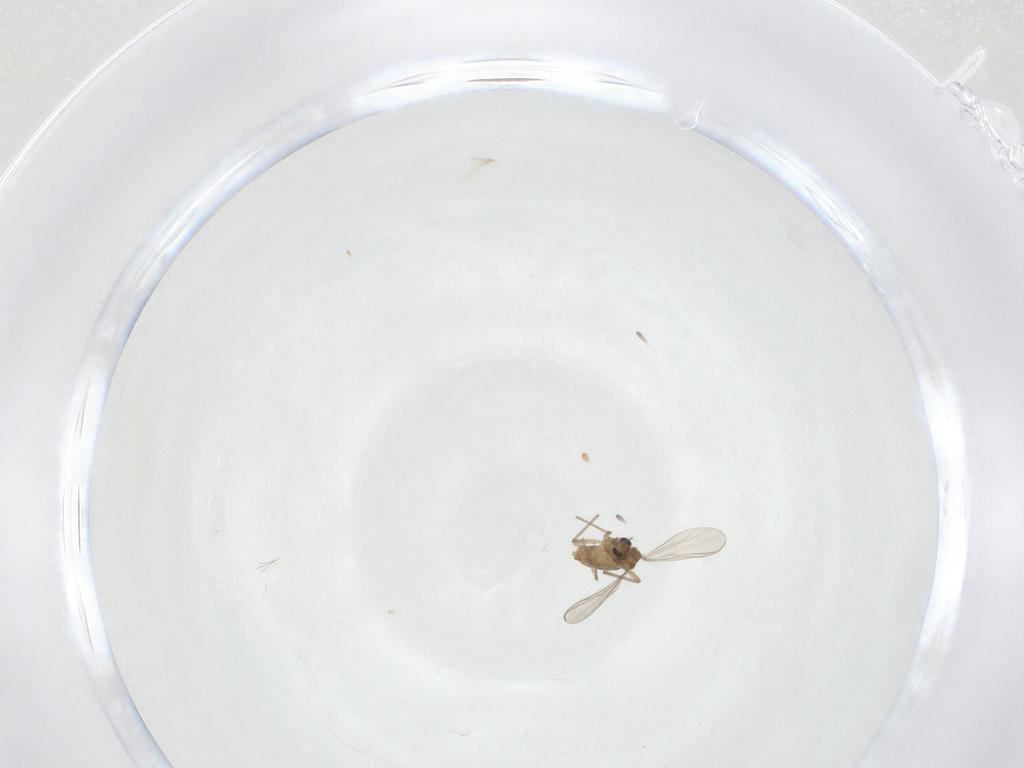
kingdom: Animalia
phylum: Arthropoda
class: Insecta
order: Diptera
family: Chironomidae
